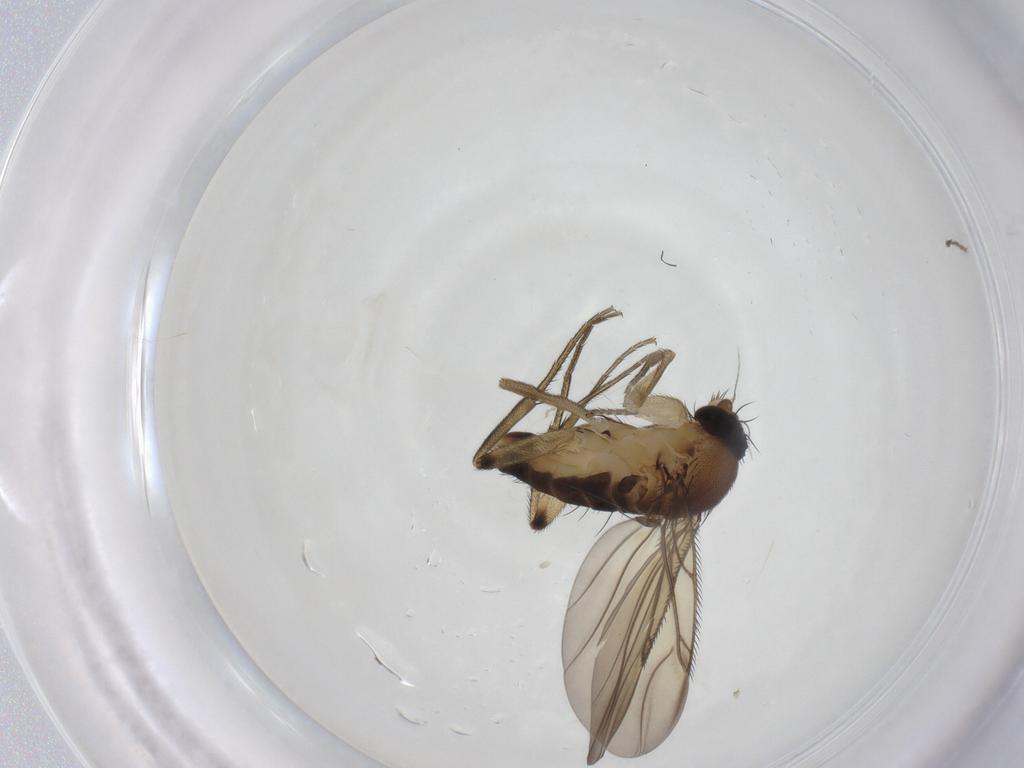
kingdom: Animalia
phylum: Arthropoda
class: Insecta
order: Diptera
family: Phoridae
